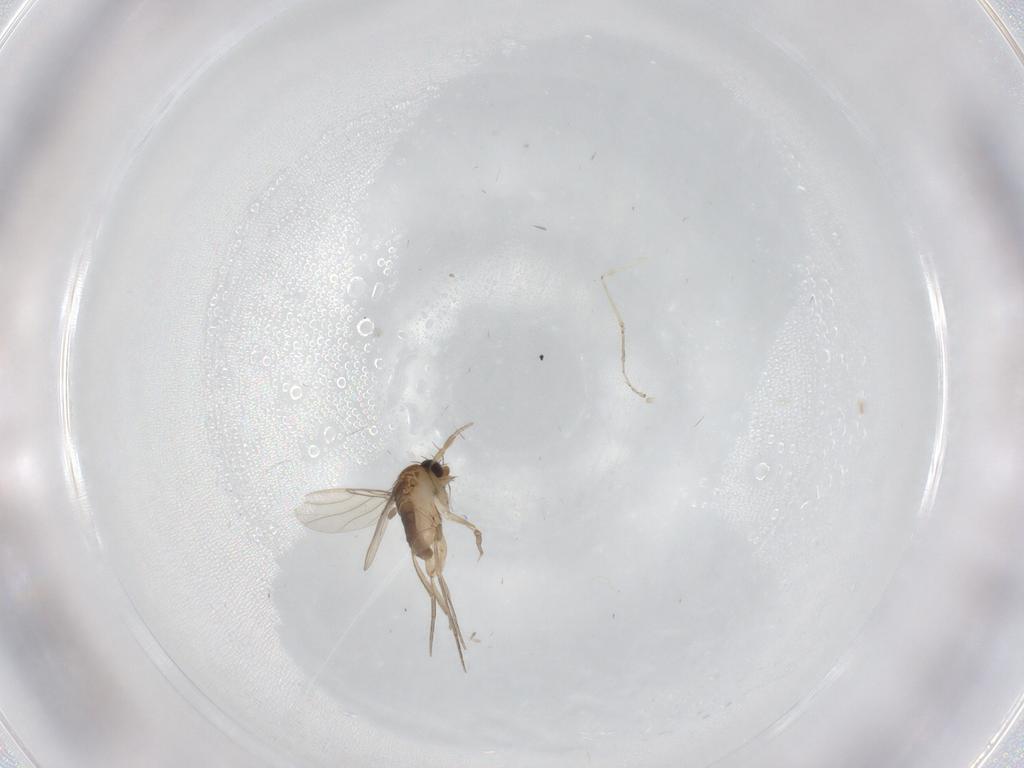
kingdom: Animalia
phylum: Arthropoda
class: Insecta
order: Diptera
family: Phoridae
